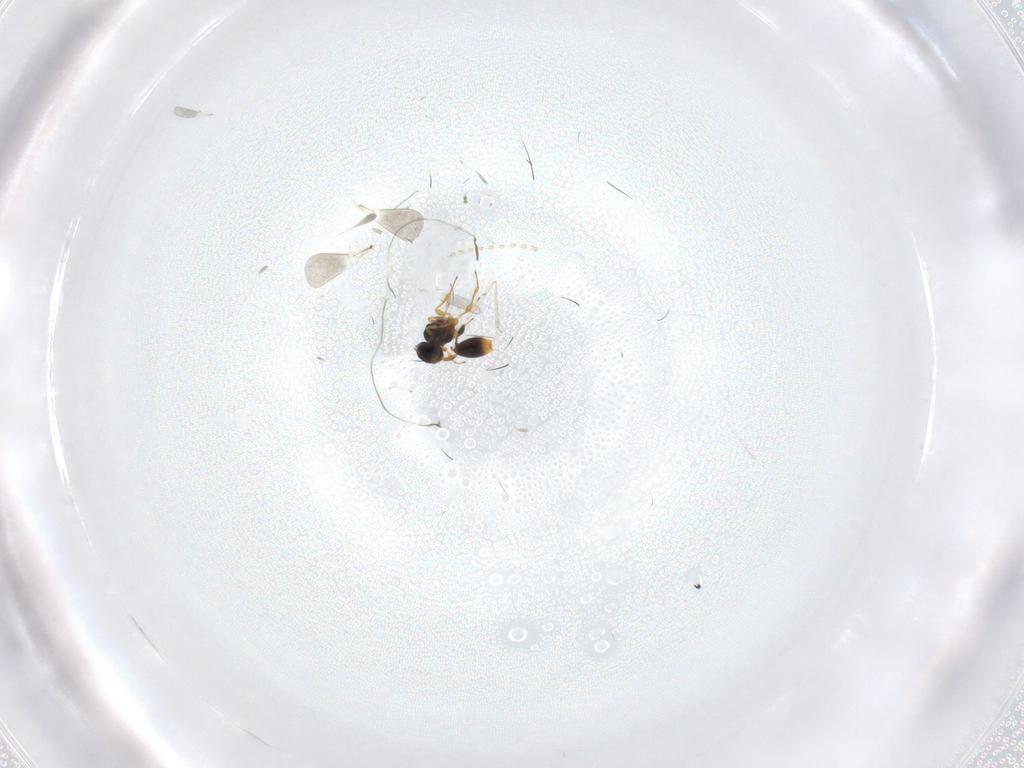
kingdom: Animalia
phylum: Arthropoda
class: Insecta
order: Hymenoptera
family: Platygastridae
